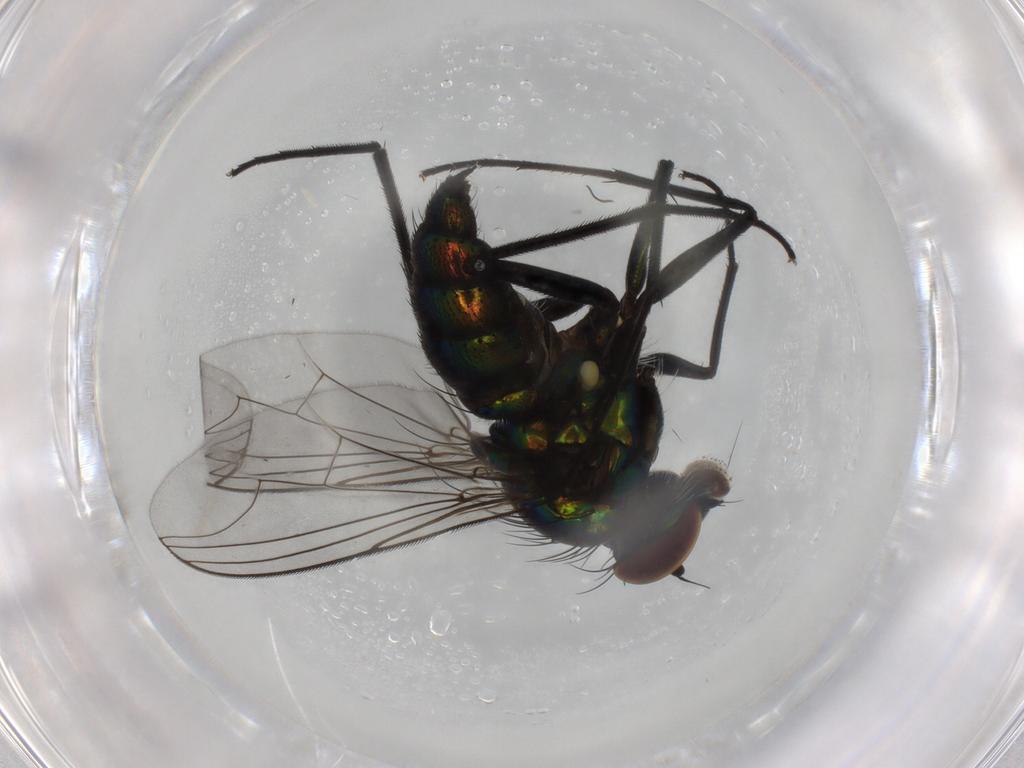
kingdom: Animalia
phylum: Arthropoda
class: Insecta
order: Diptera
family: Dolichopodidae
